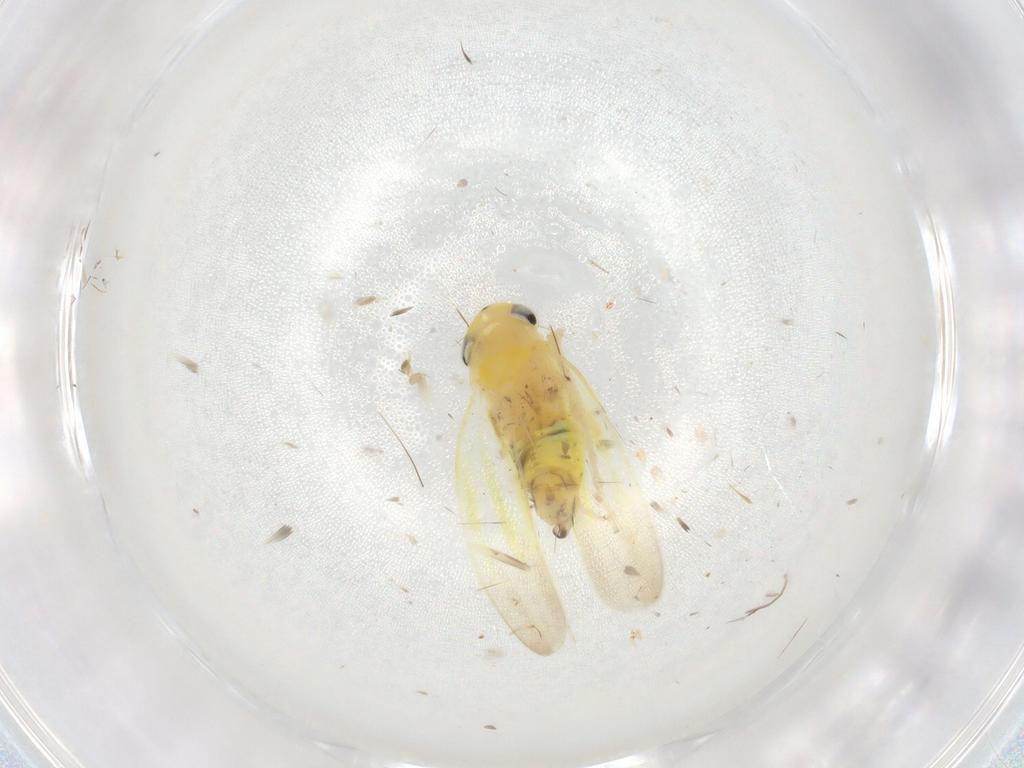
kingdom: Animalia
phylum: Arthropoda
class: Insecta
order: Hemiptera
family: Cicadellidae
